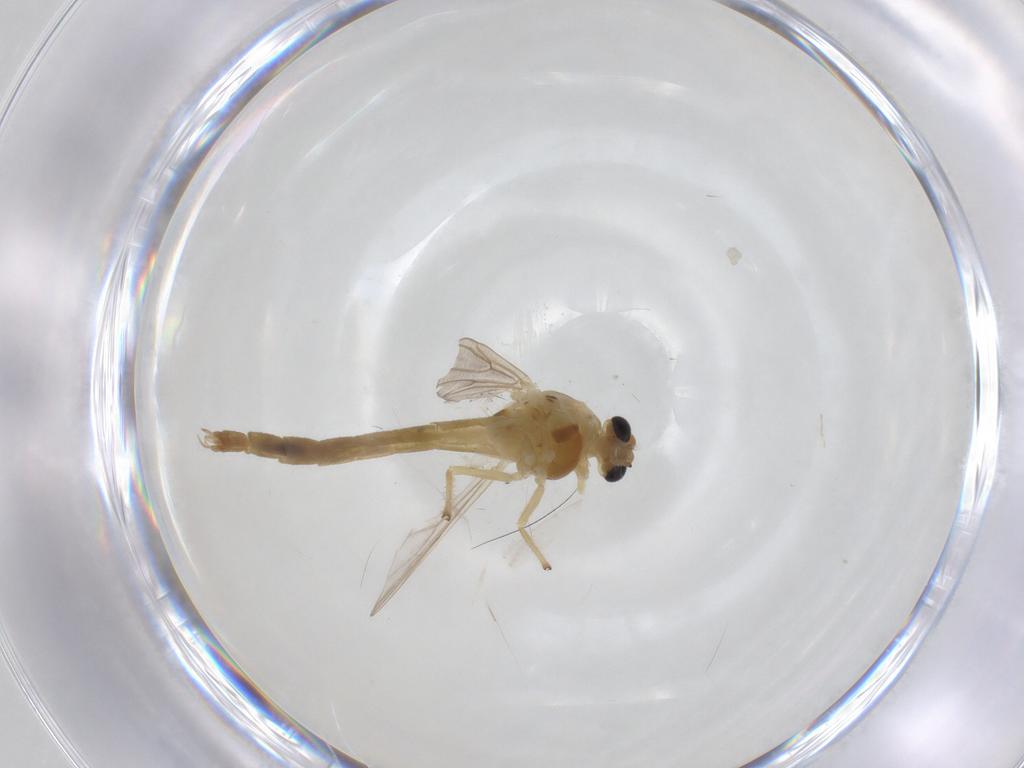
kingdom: Animalia
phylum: Arthropoda
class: Insecta
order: Diptera
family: Chironomidae
